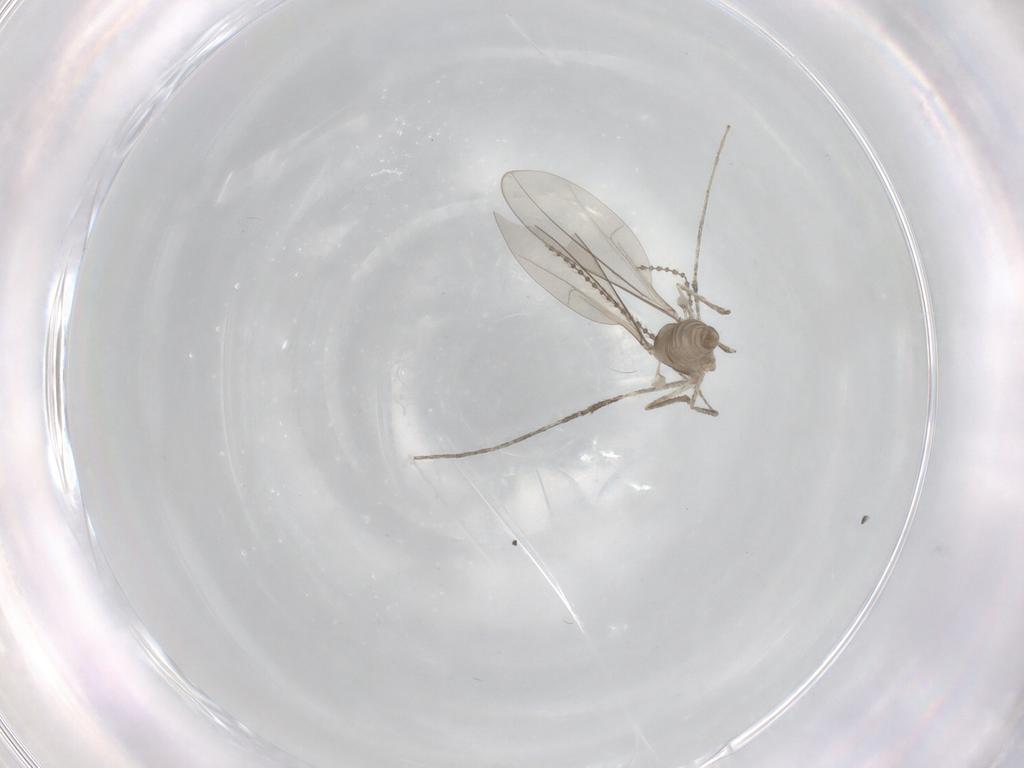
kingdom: Animalia
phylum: Arthropoda
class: Insecta
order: Diptera
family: Cecidomyiidae
